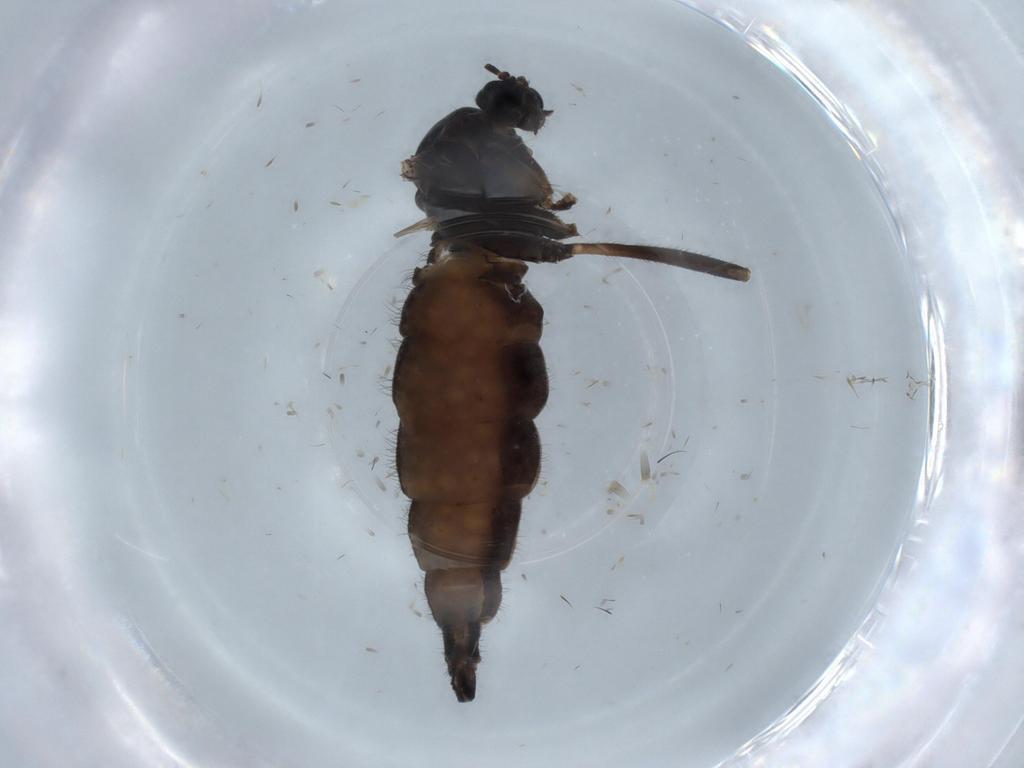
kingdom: Animalia
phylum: Arthropoda
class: Insecta
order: Diptera
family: Sciaridae
